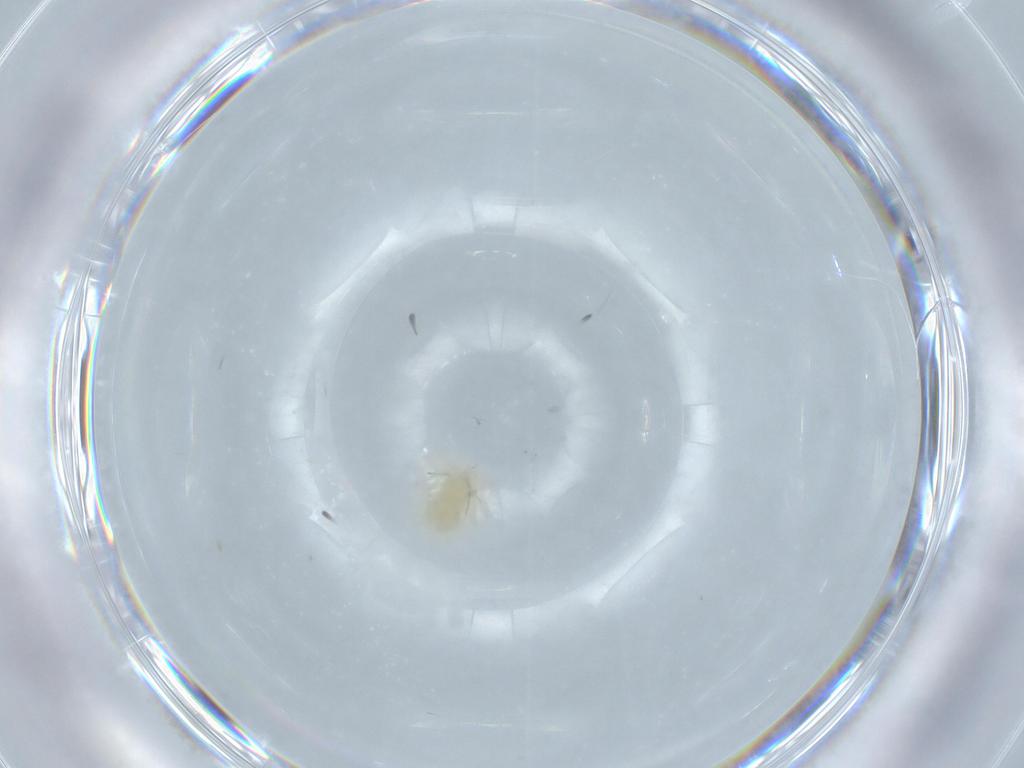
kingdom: Animalia
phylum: Arthropoda
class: Arachnida
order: Trombidiformes
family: Anystidae
